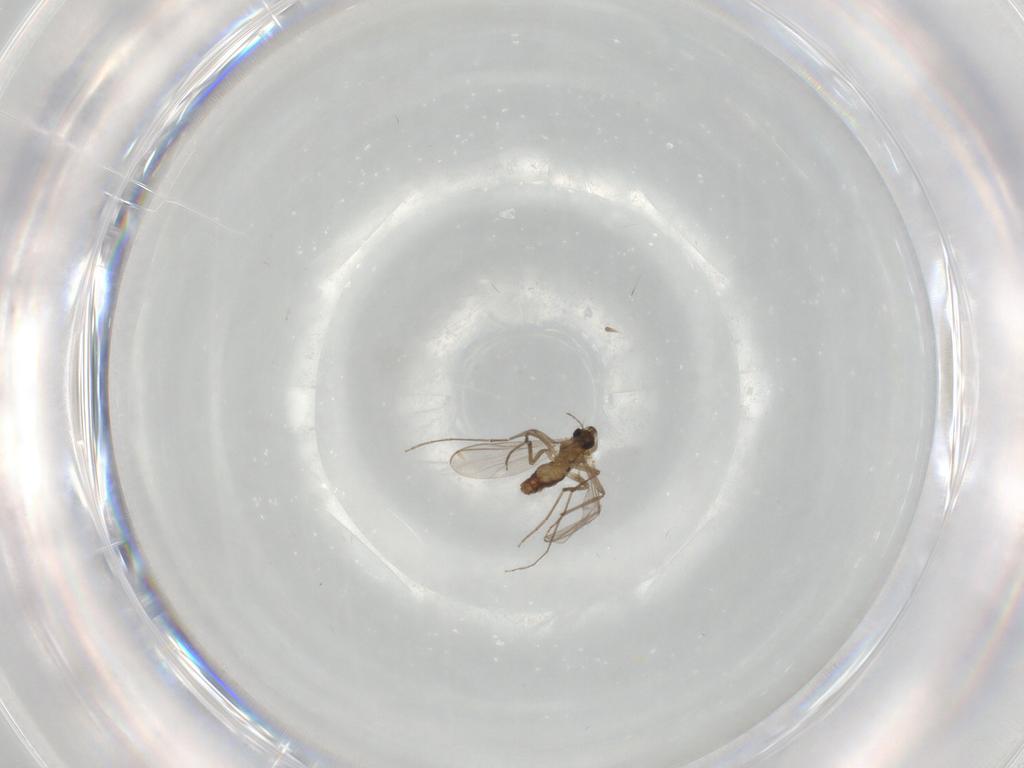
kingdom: Animalia
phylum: Arthropoda
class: Insecta
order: Diptera
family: Chironomidae
